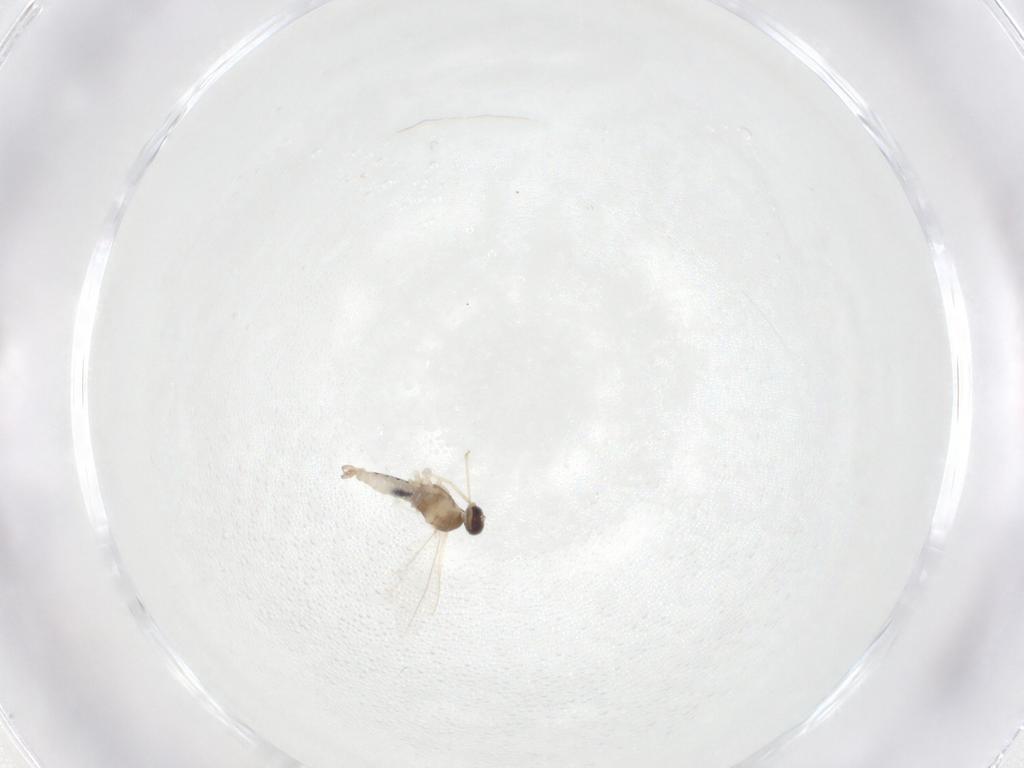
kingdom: Animalia
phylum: Arthropoda
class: Insecta
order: Diptera
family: Cecidomyiidae
